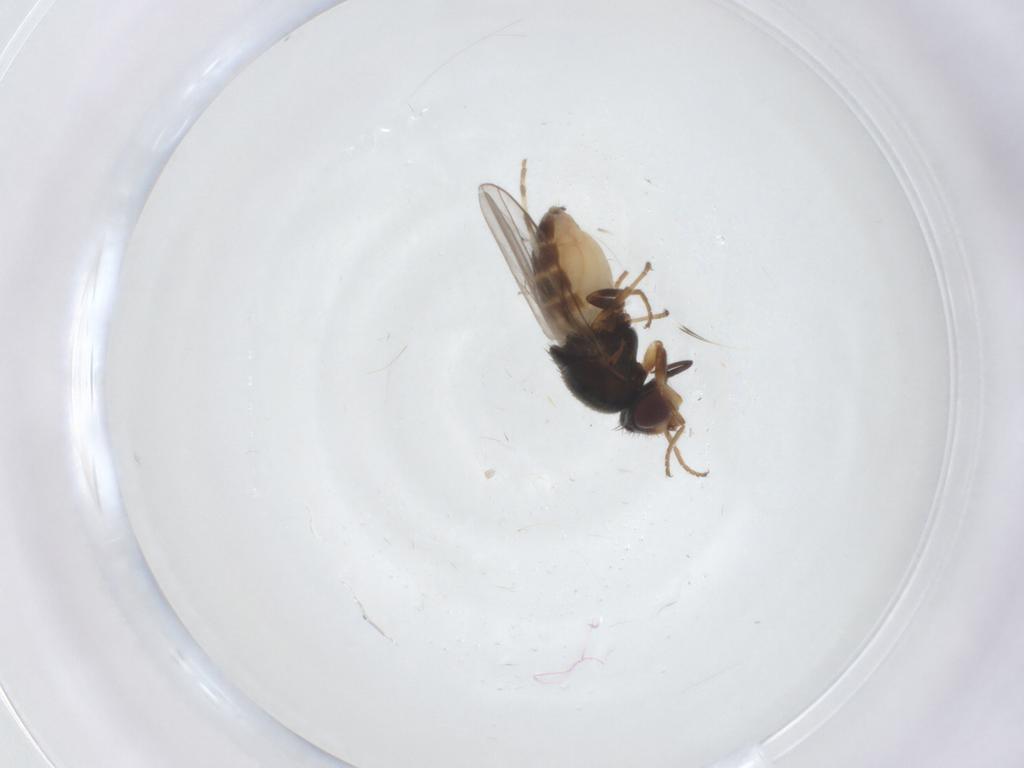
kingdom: Animalia
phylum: Arthropoda
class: Insecta
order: Diptera
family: Chloropidae
